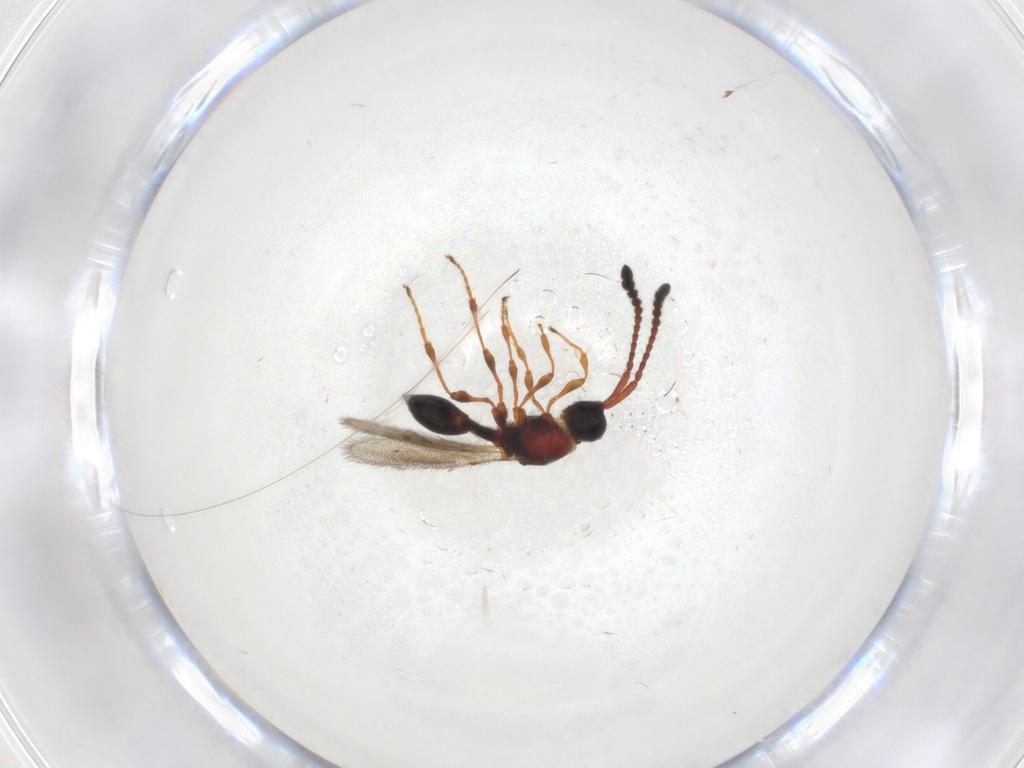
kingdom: Animalia
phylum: Arthropoda
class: Insecta
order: Hymenoptera
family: Diapriidae
